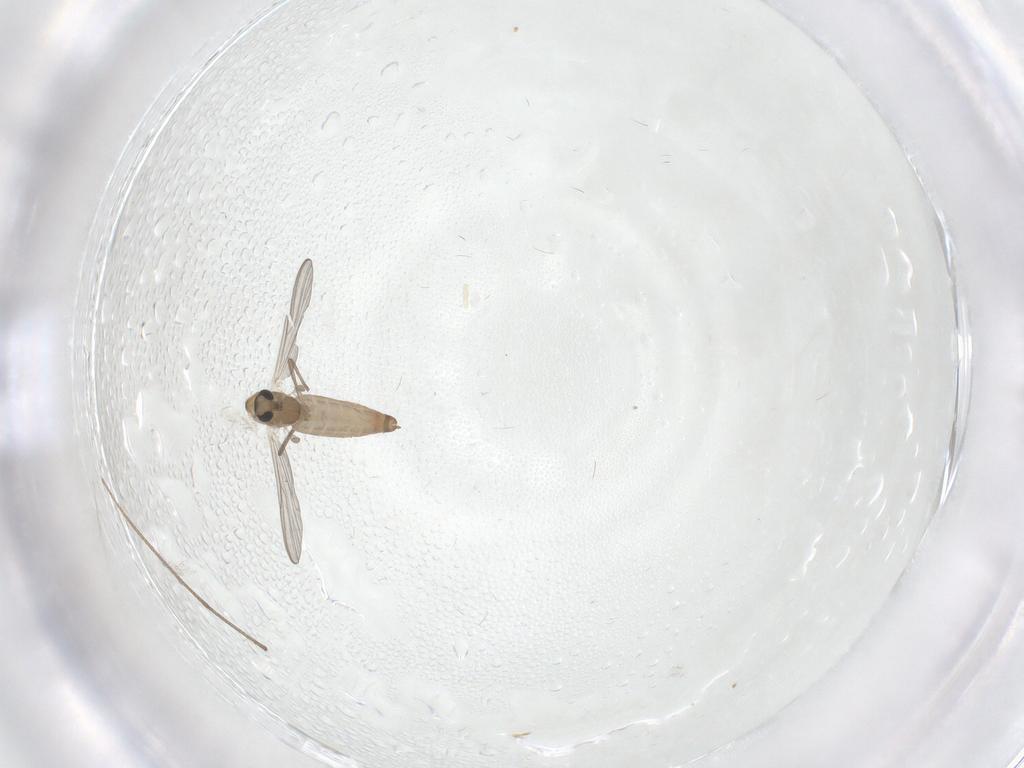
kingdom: Animalia
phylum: Arthropoda
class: Insecta
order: Diptera
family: Chironomidae
